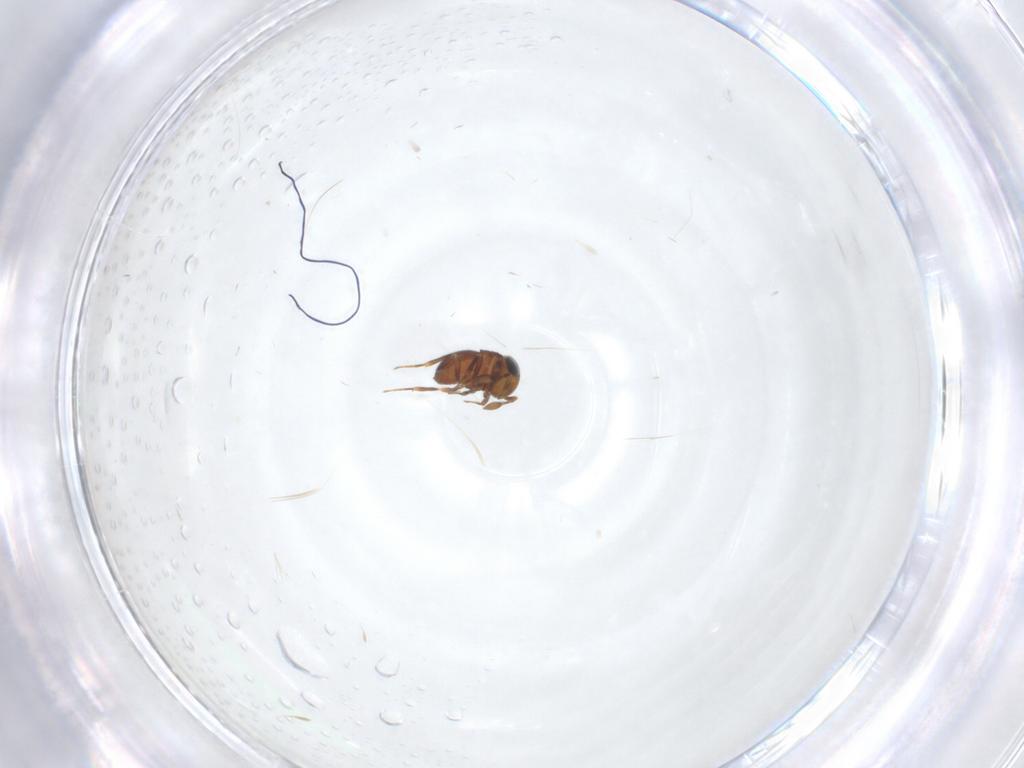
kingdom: Animalia
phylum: Arthropoda
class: Insecta
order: Hymenoptera
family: Scelionidae
